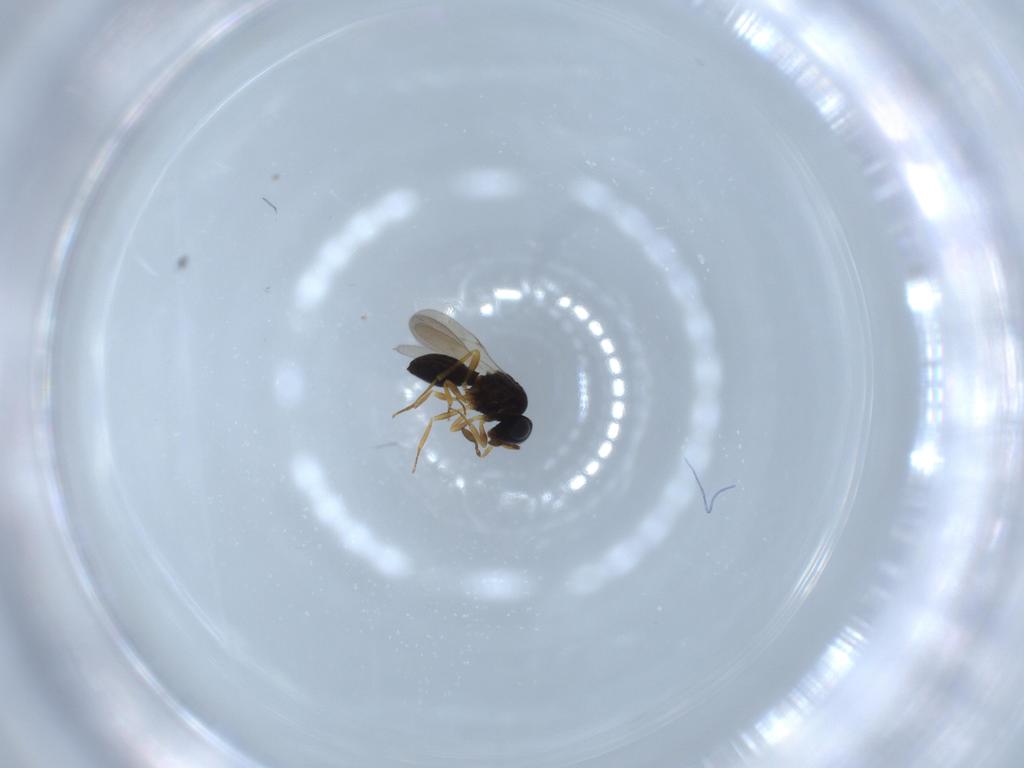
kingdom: Animalia
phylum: Arthropoda
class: Insecta
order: Hymenoptera
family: Scelionidae
